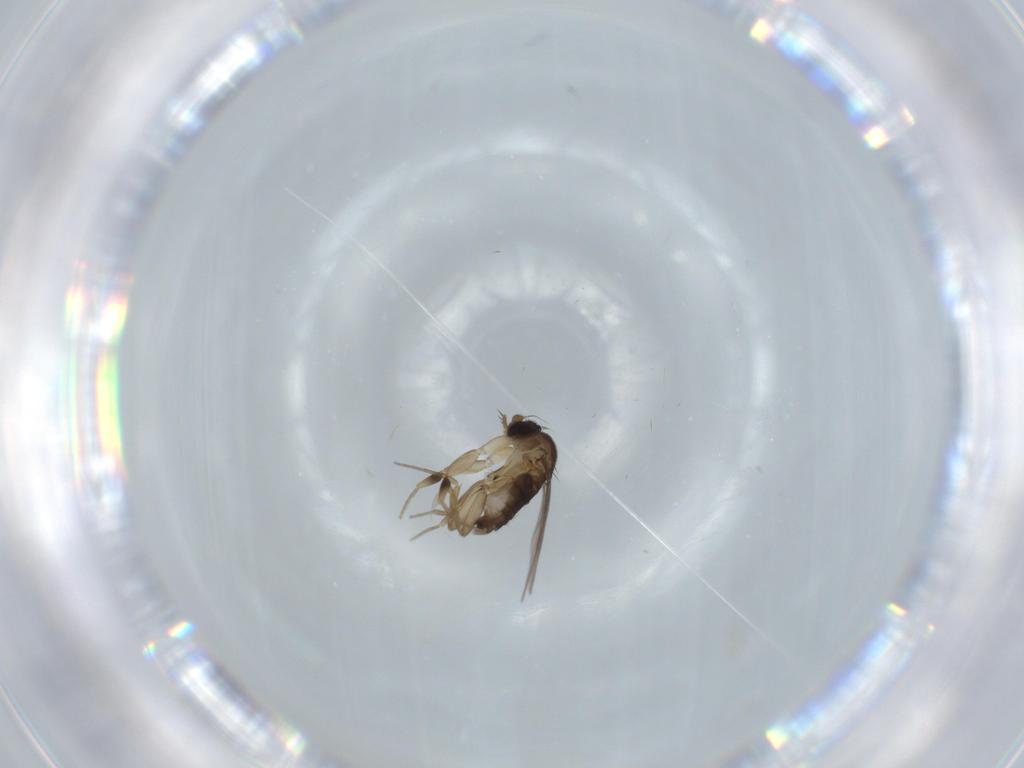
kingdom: Animalia
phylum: Arthropoda
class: Insecta
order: Diptera
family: Phoridae
